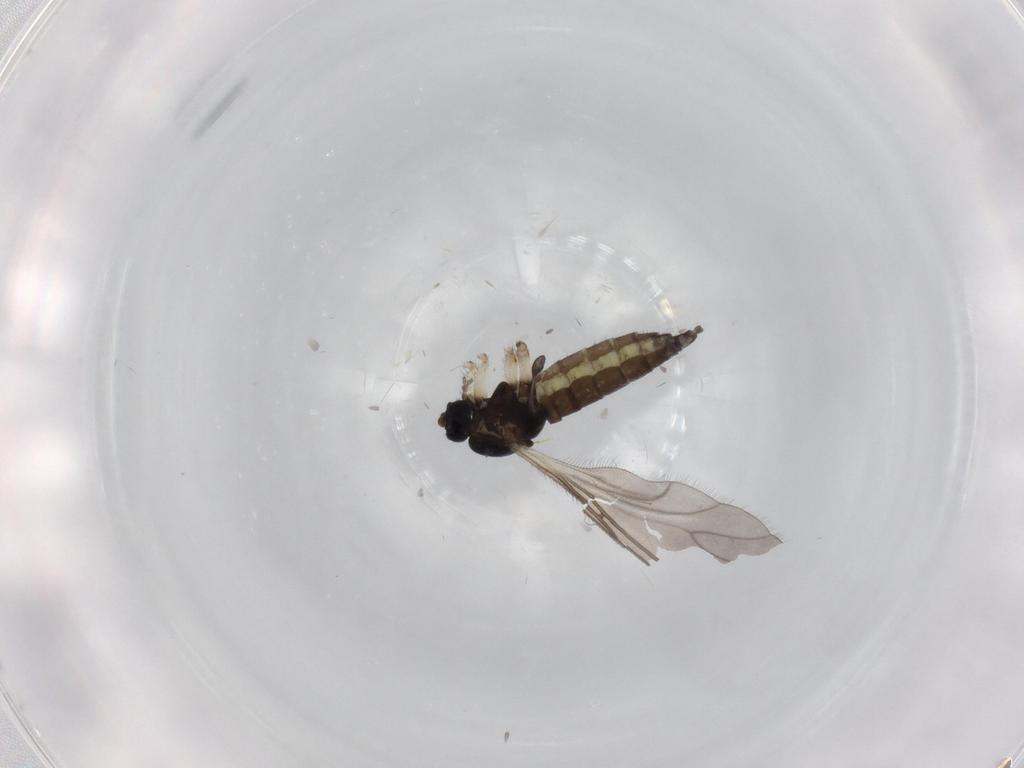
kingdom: Animalia
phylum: Arthropoda
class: Insecta
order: Diptera
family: Sciaridae
